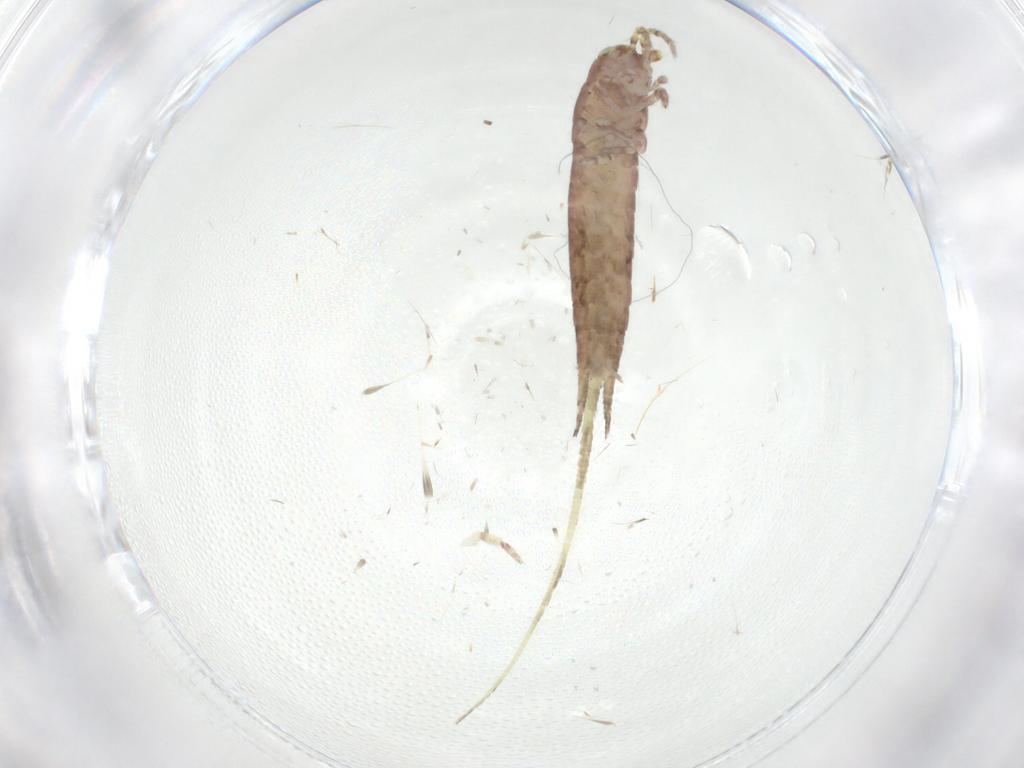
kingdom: Animalia
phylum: Arthropoda
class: Insecta
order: Archaeognatha
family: Machilidae
